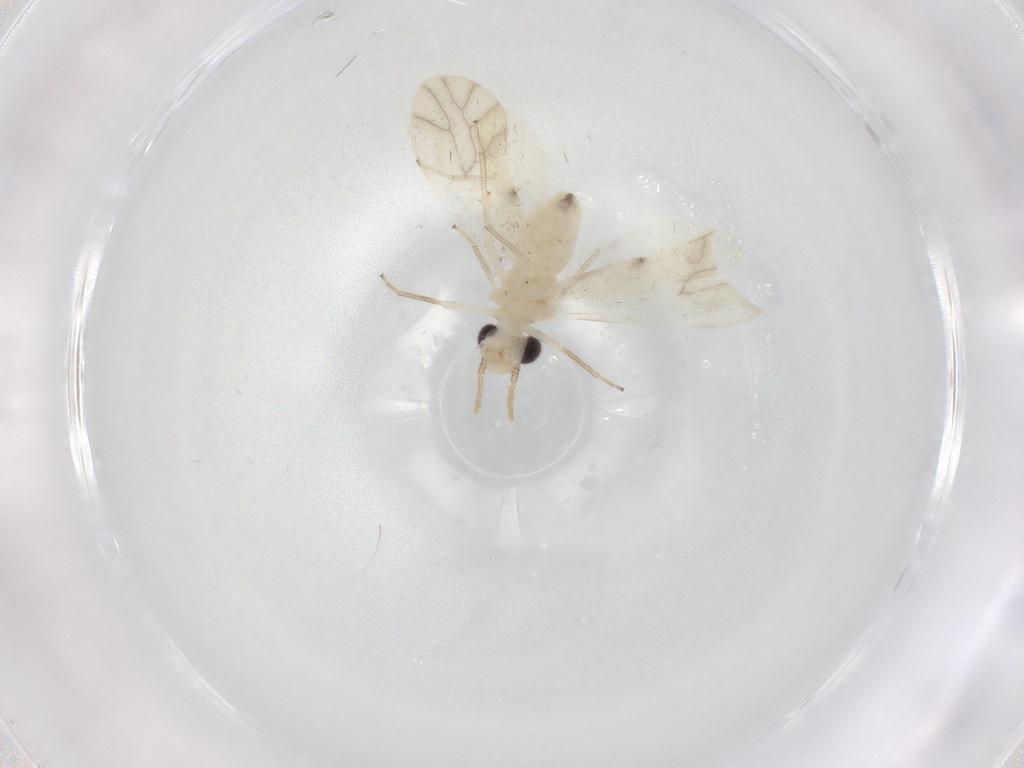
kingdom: Animalia
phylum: Arthropoda
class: Insecta
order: Psocodea
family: Caeciliusidae
